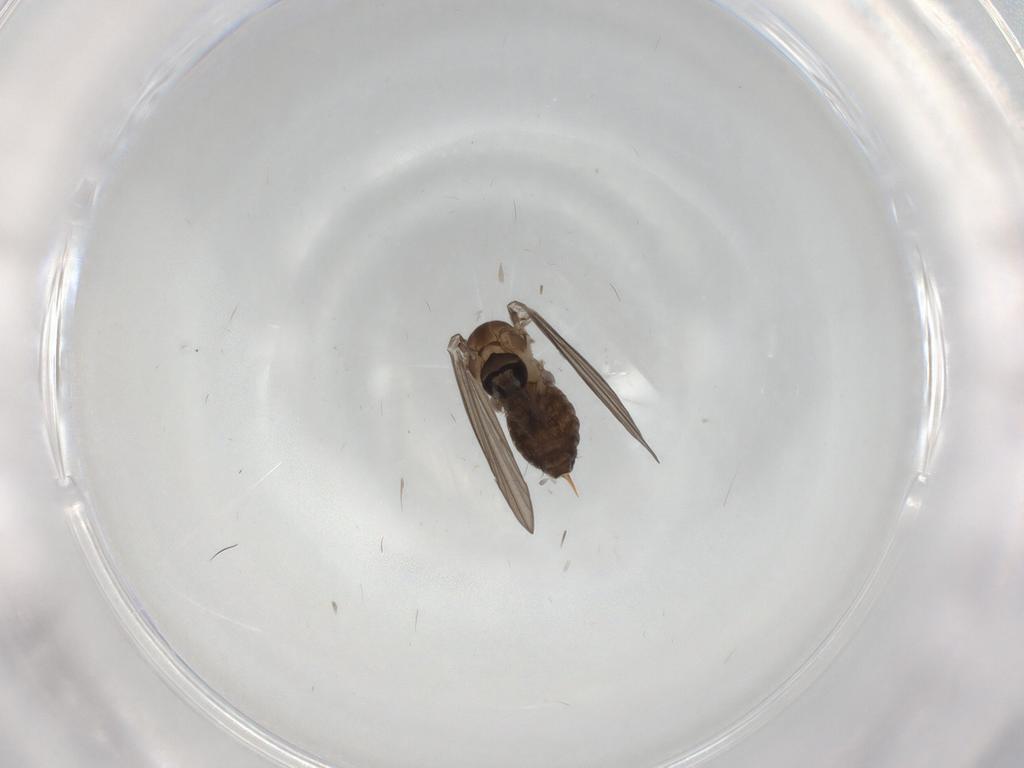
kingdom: Animalia
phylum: Arthropoda
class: Insecta
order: Diptera
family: Psychodidae
